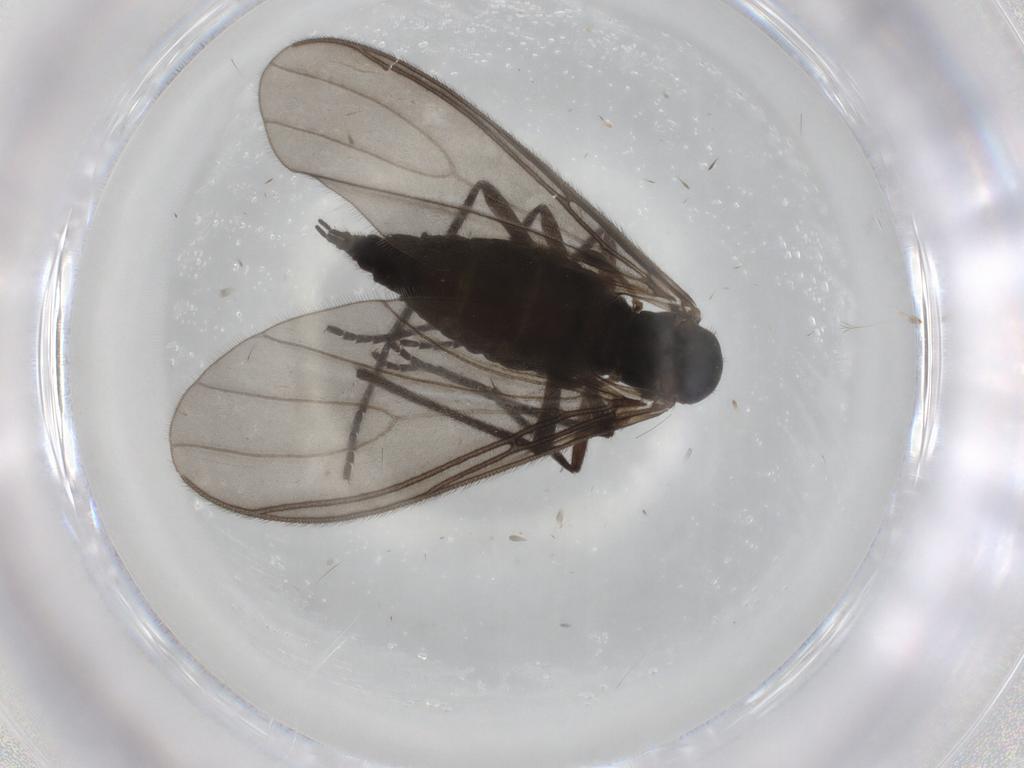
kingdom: Animalia
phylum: Arthropoda
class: Insecta
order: Diptera
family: Sciaridae
